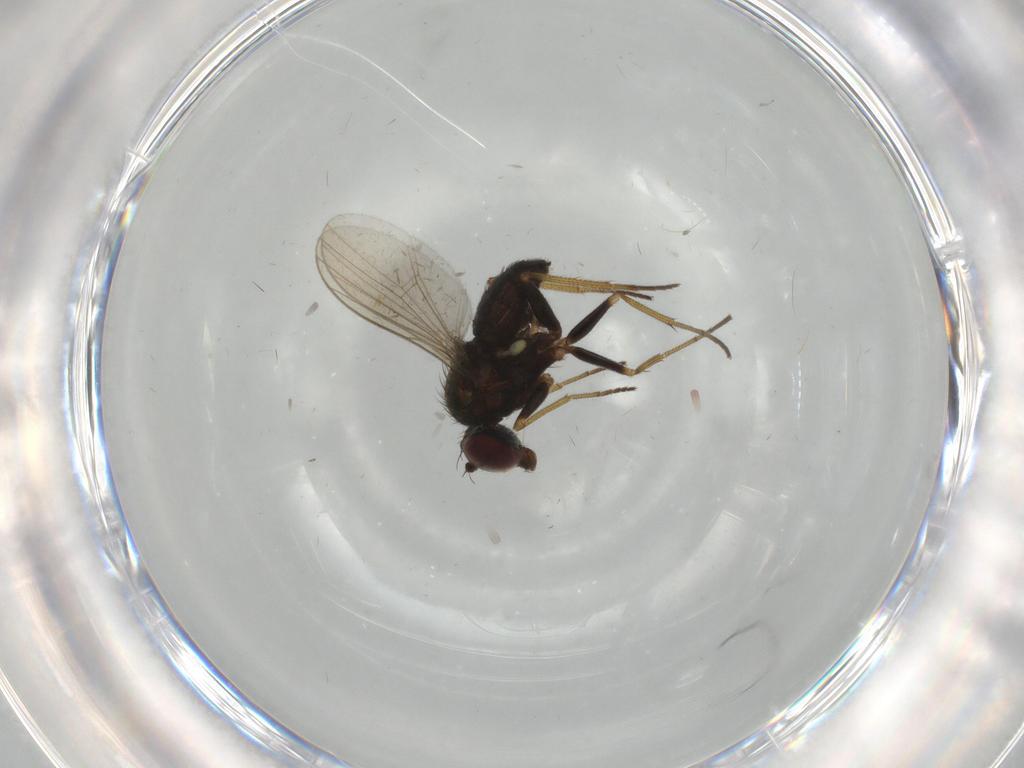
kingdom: Animalia
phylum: Arthropoda
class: Insecta
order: Diptera
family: Dolichopodidae
